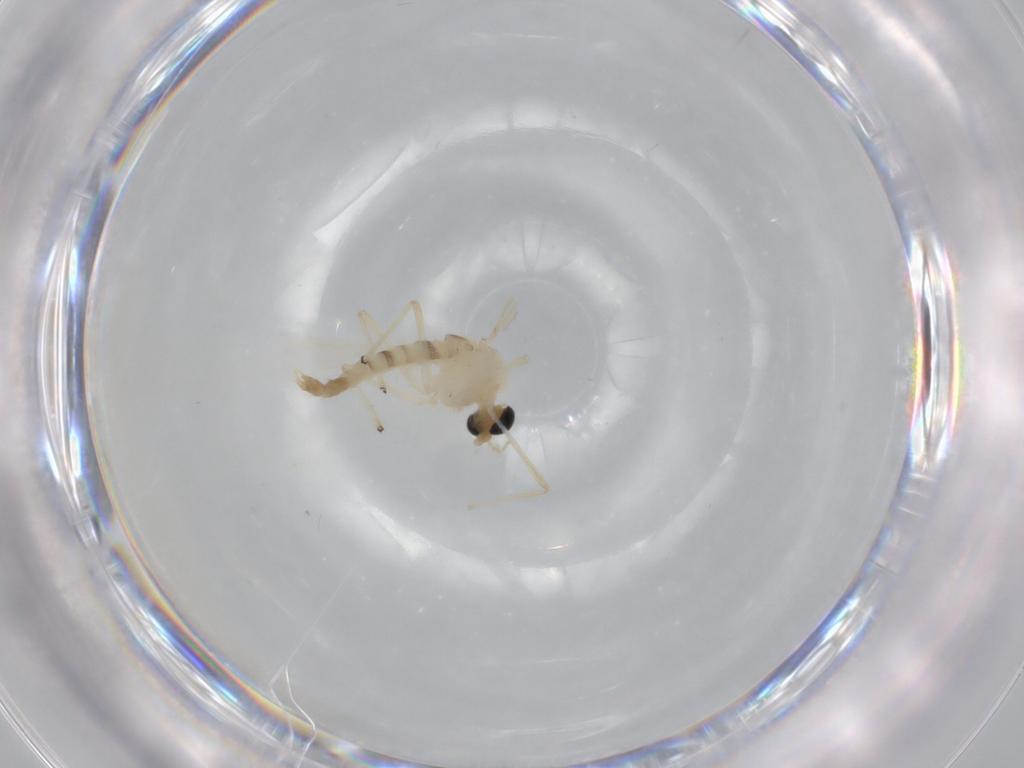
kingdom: Animalia
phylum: Arthropoda
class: Insecta
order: Diptera
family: Chironomidae
